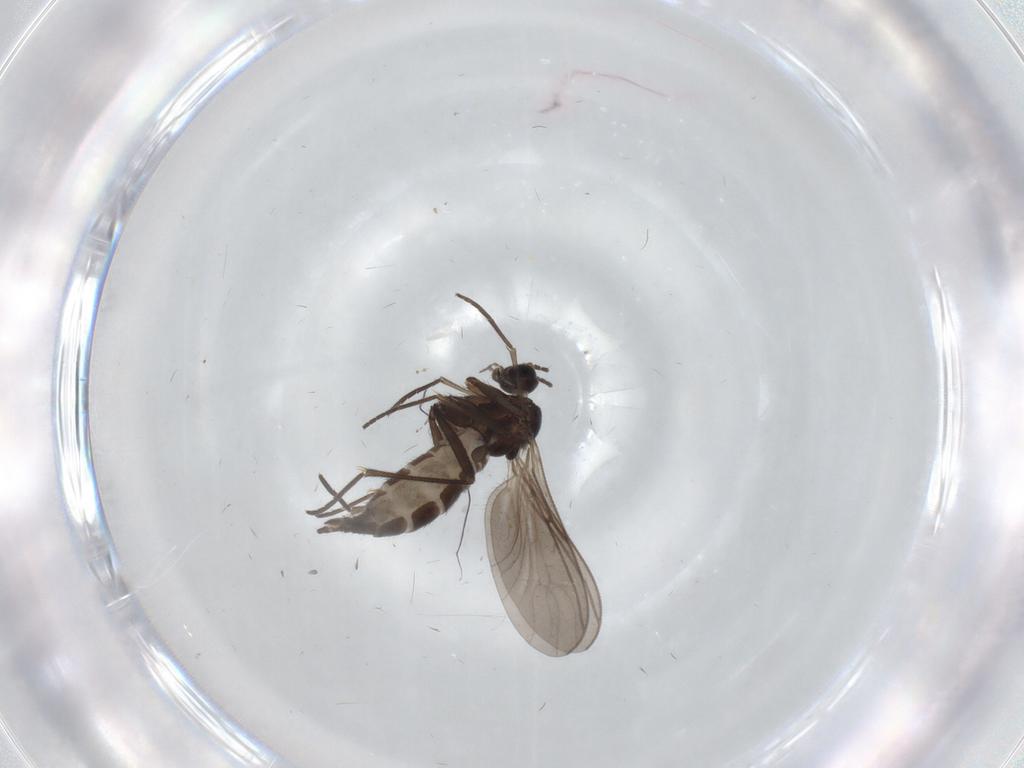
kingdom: Animalia
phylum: Arthropoda
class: Insecta
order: Diptera
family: Sciaridae
